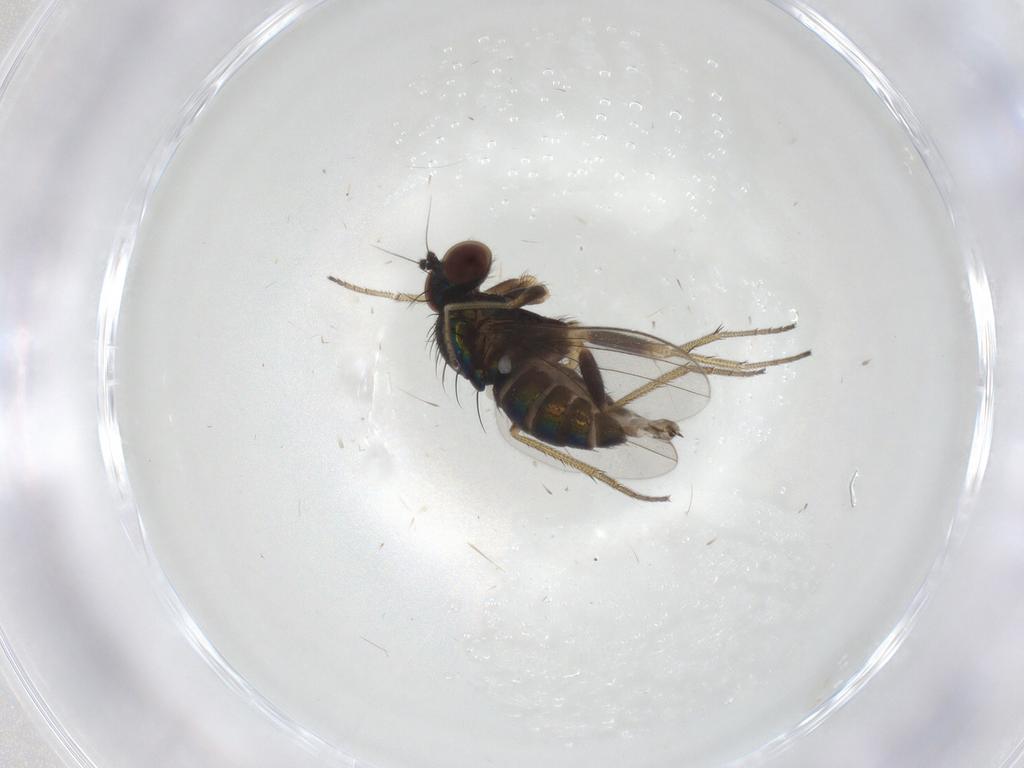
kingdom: Animalia
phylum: Arthropoda
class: Insecta
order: Diptera
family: Dolichopodidae
